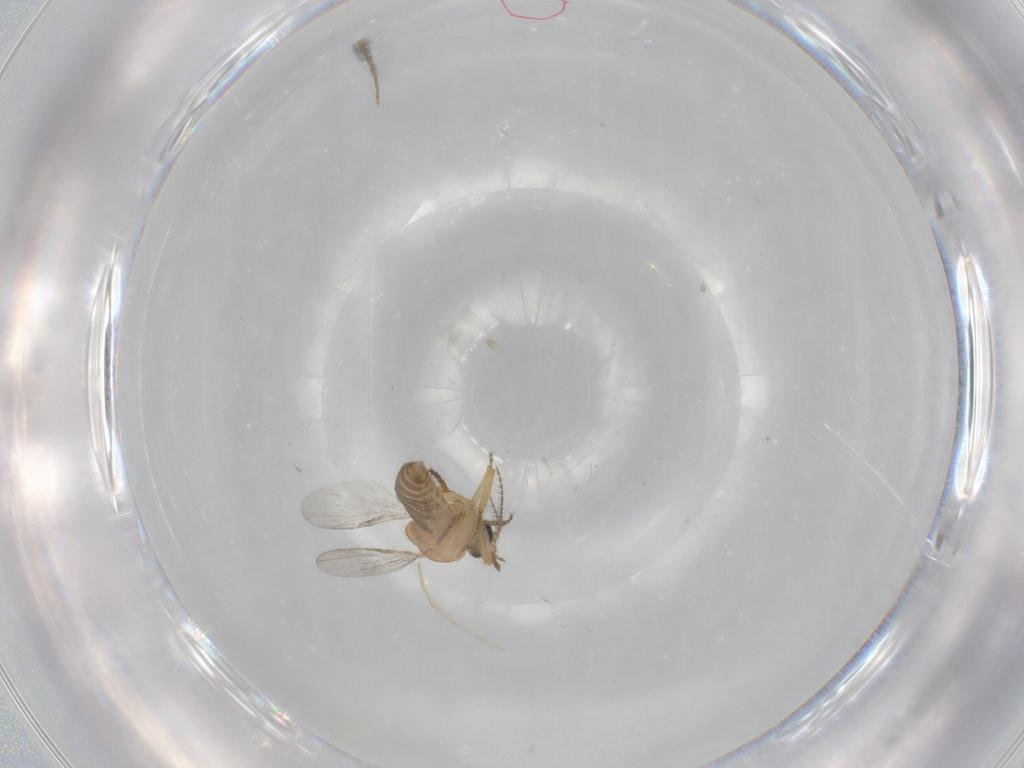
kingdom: Animalia
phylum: Arthropoda
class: Insecta
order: Diptera
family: Ceratopogonidae
